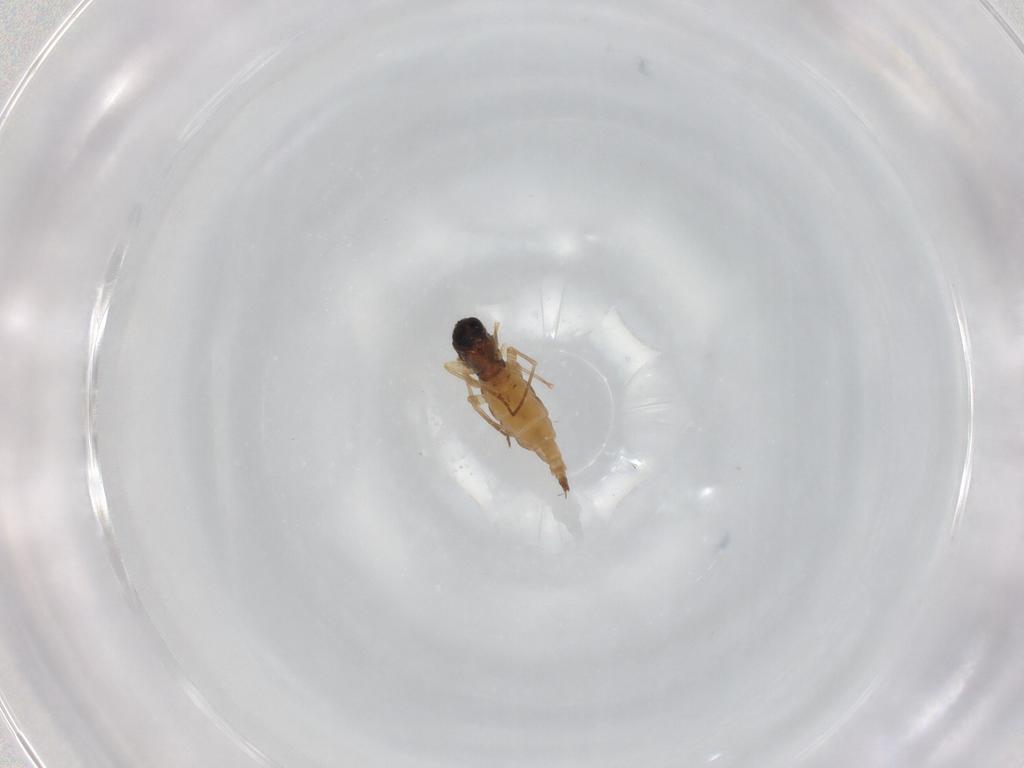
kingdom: Animalia
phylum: Arthropoda
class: Insecta
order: Diptera
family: Sciaridae
